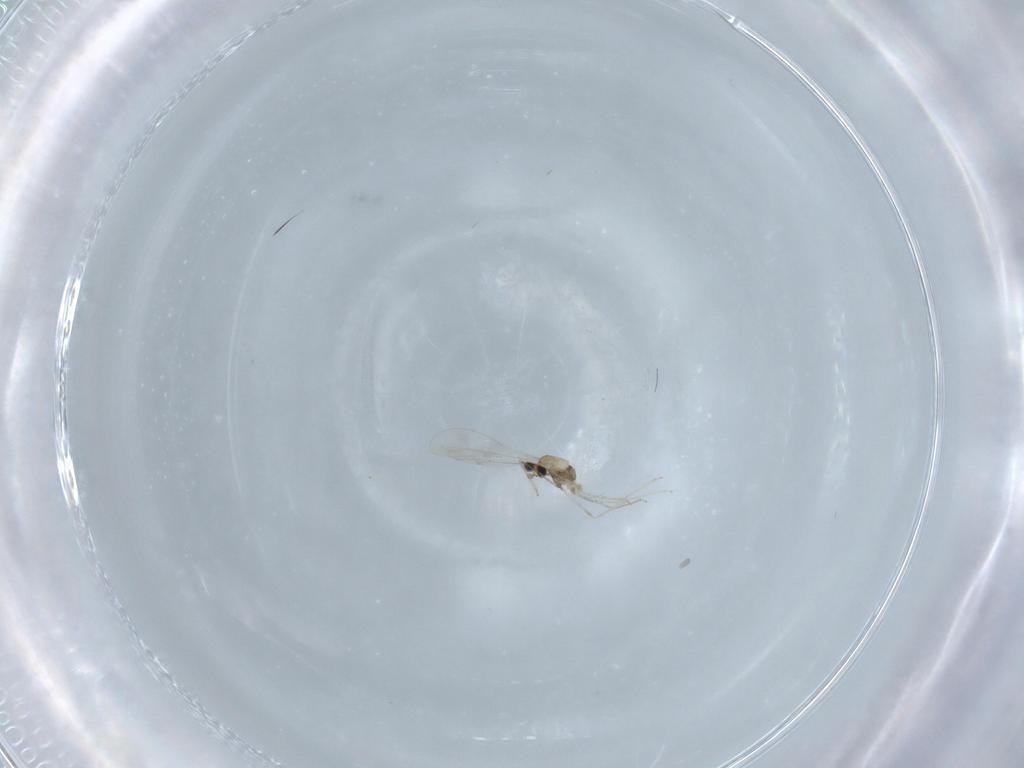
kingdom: Animalia
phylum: Arthropoda
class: Insecta
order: Diptera
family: Cecidomyiidae
